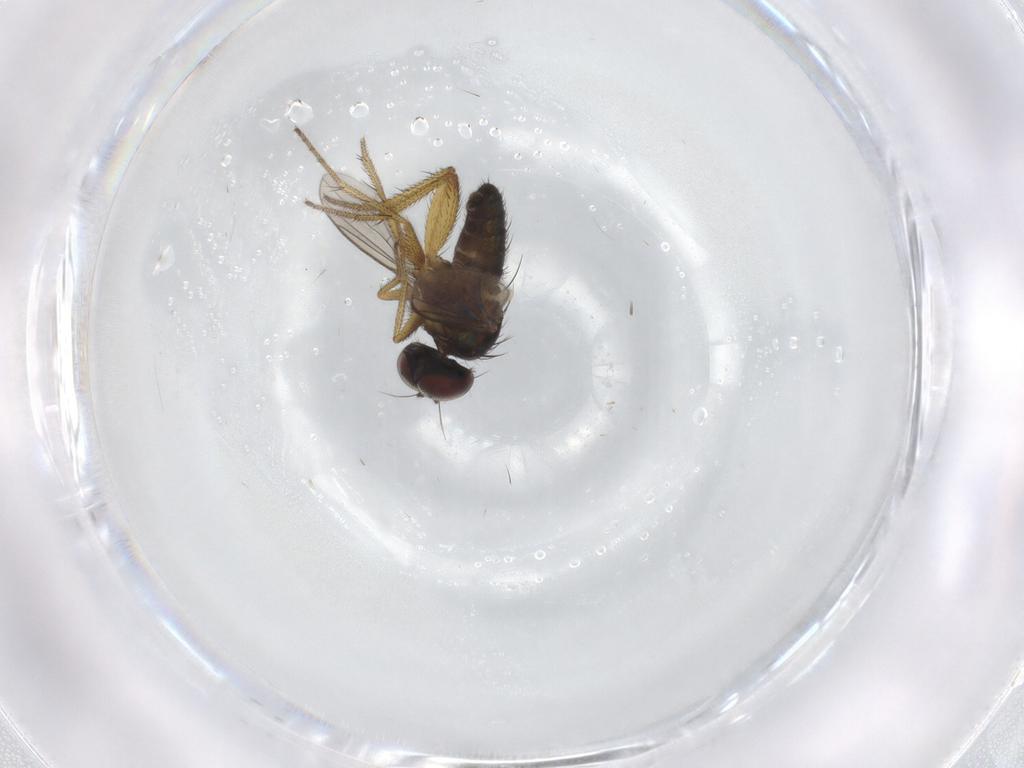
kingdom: Animalia
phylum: Arthropoda
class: Insecta
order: Diptera
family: Chironomidae
